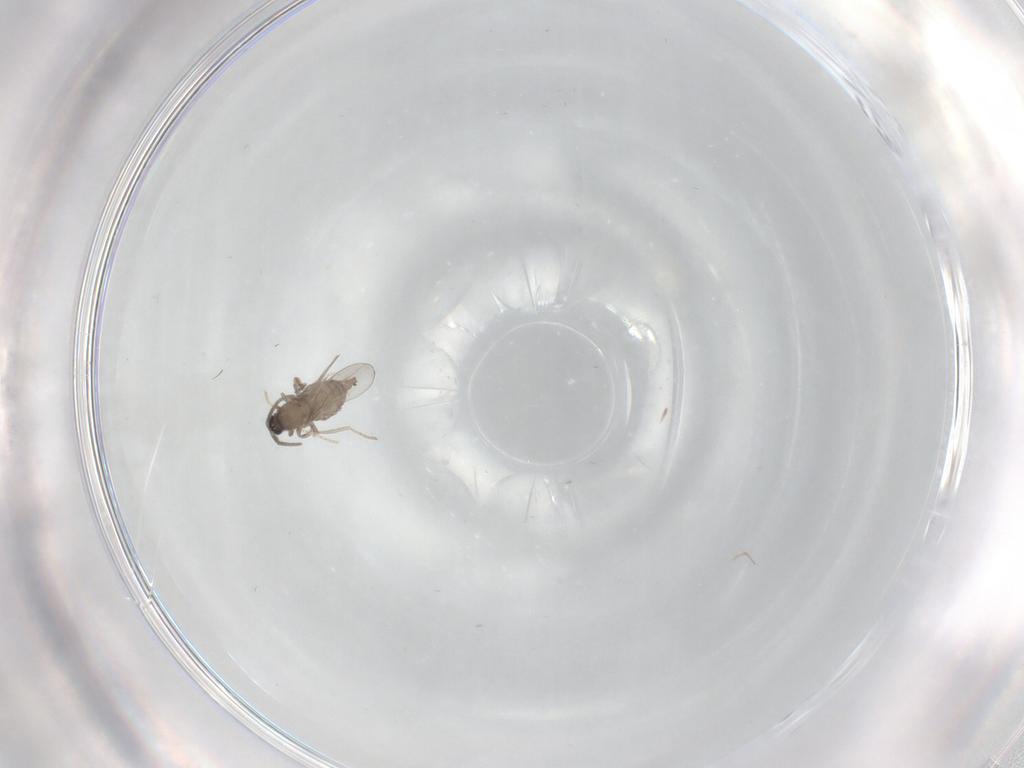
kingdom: Animalia
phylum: Arthropoda
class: Insecta
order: Diptera
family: Cecidomyiidae
